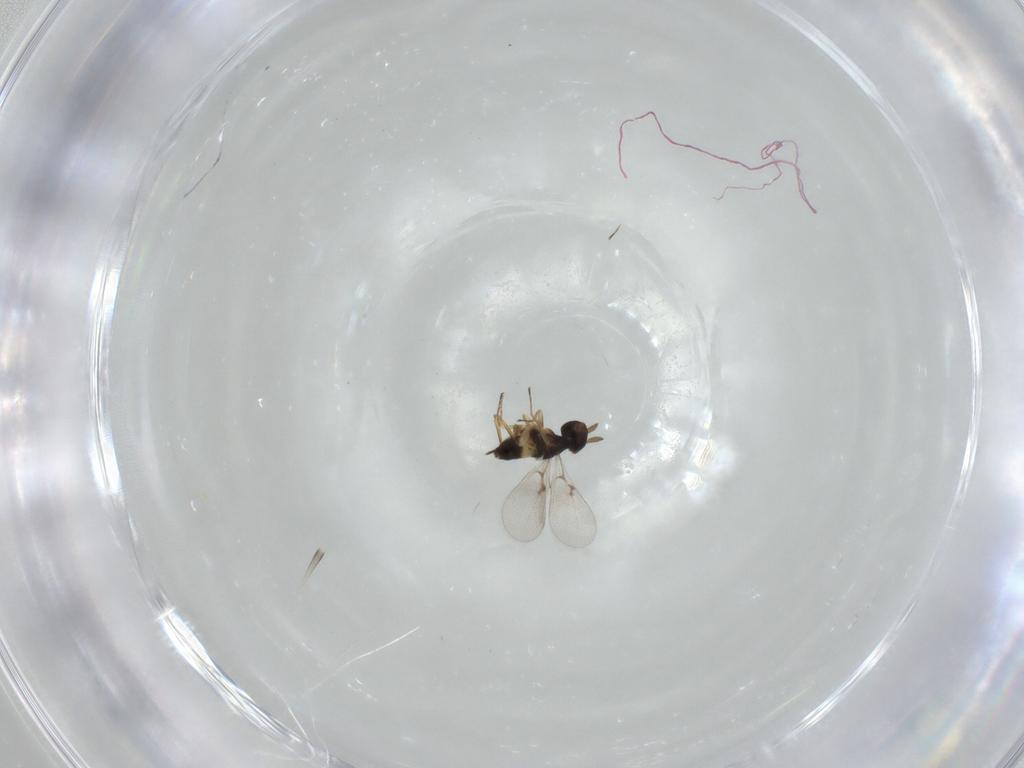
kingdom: Animalia
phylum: Arthropoda
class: Insecta
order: Hymenoptera
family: Eulophidae
